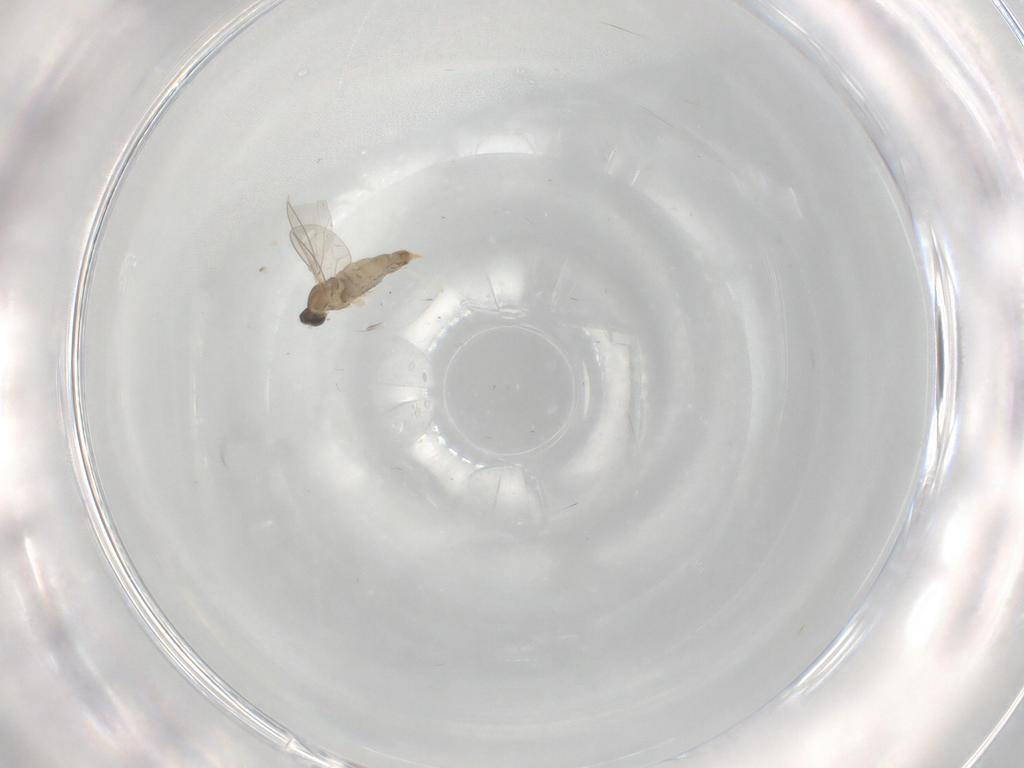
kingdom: Animalia
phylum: Arthropoda
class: Insecta
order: Diptera
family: Cecidomyiidae
